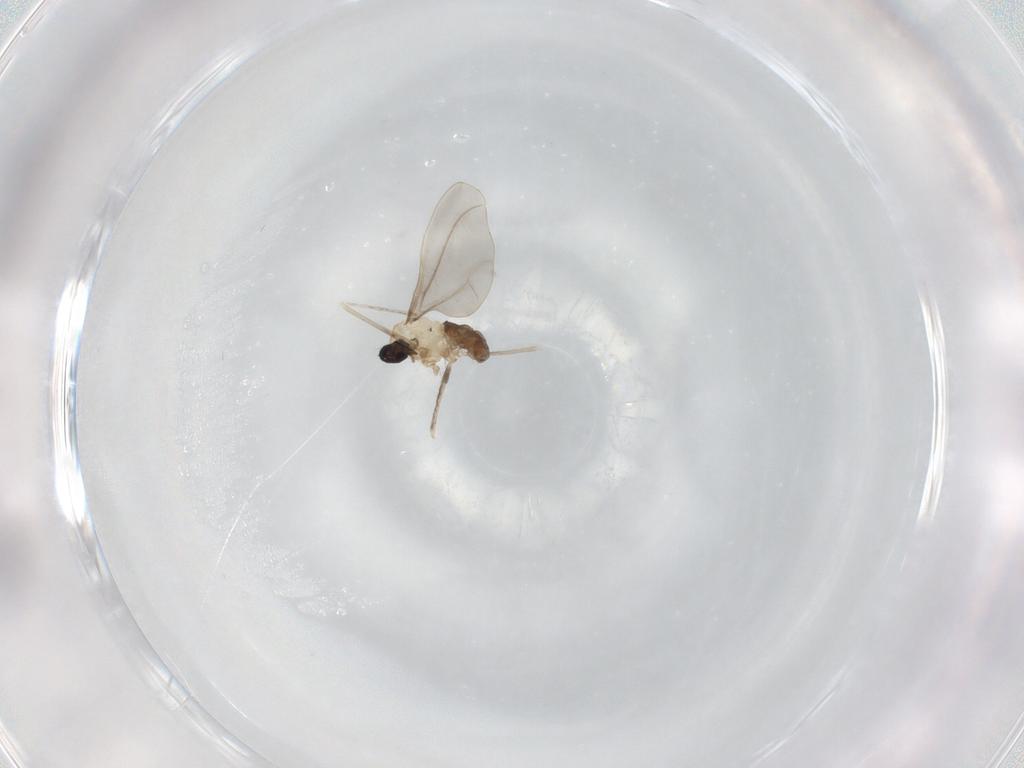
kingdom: Animalia
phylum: Arthropoda
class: Insecta
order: Diptera
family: Cecidomyiidae
